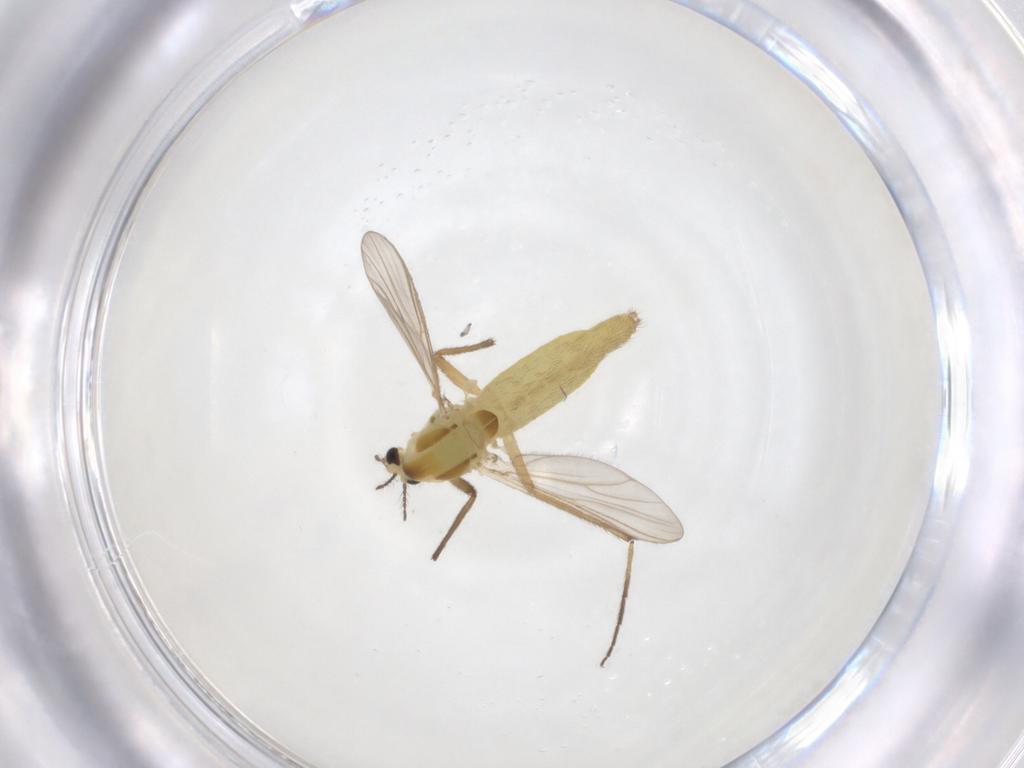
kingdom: Animalia
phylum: Arthropoda
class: Insecta
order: Diptera
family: Chironomidae
